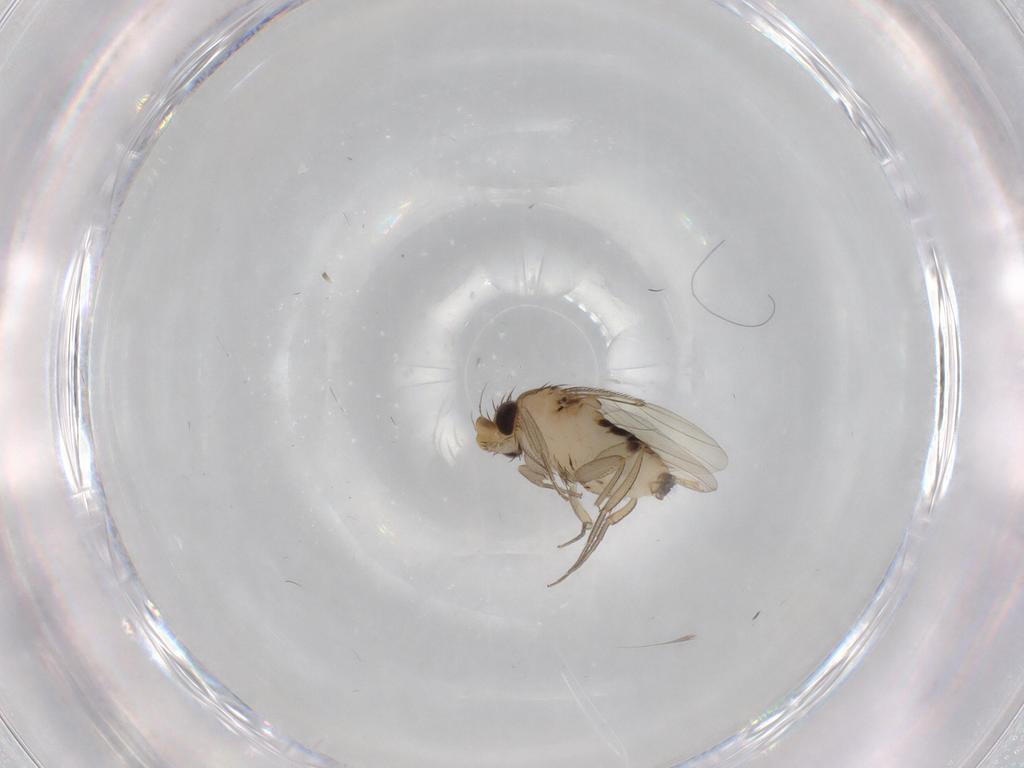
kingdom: Animalia
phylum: Arthropoda
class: Insecta
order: Diptera
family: Phoridae
